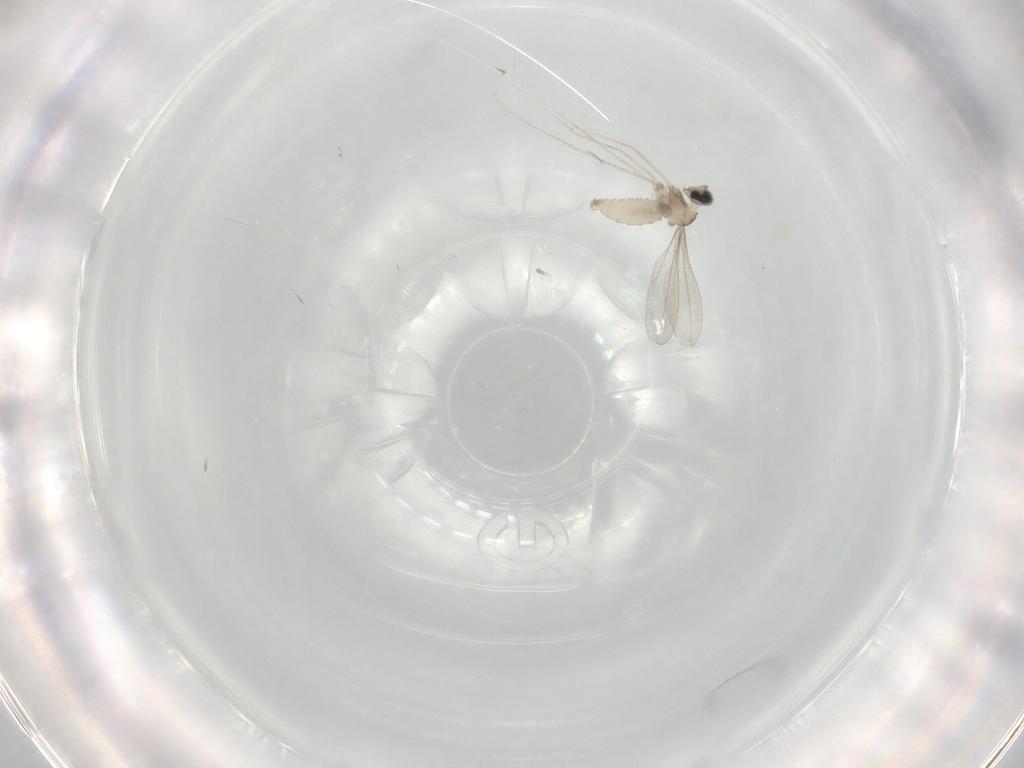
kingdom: Animalia
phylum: Arthropoda
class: Insecta
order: Diptera
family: Cecidomyiidae
